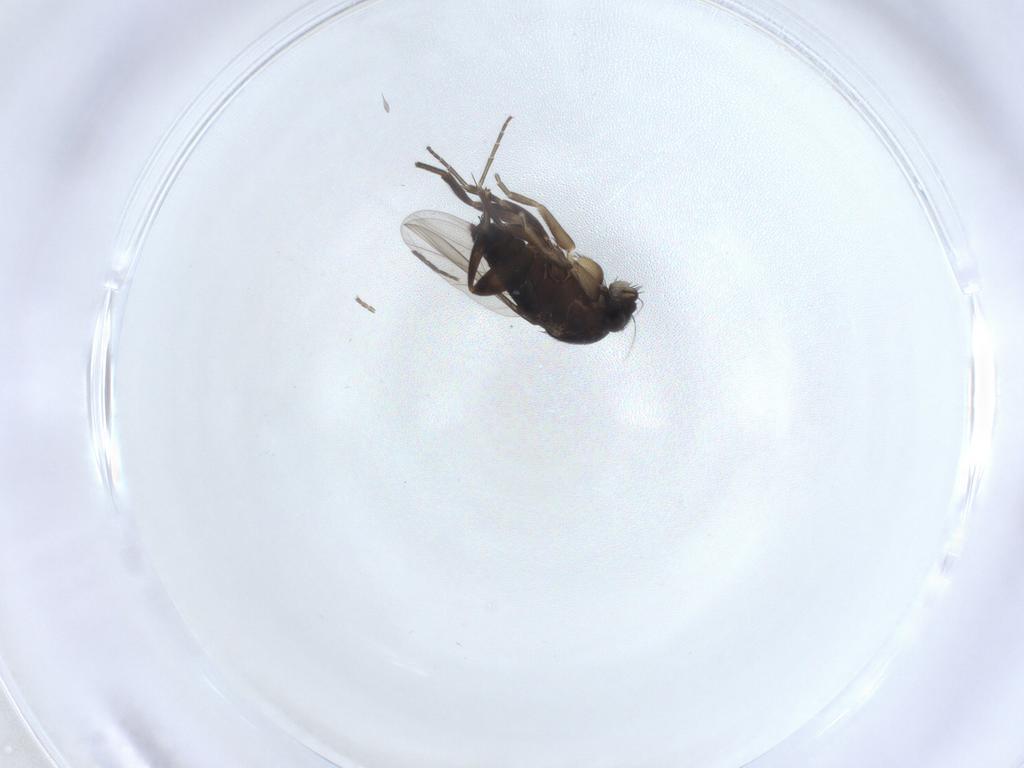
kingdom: Animalia
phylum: Arthropoda
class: Insecta
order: Diptera
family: Phoridae
